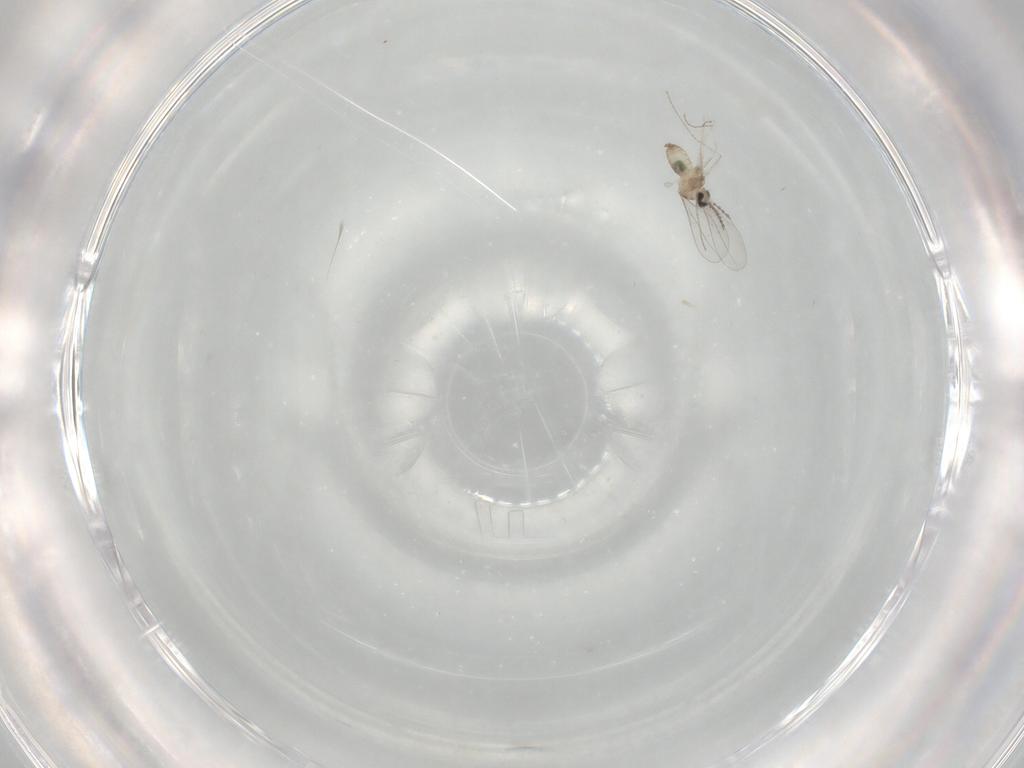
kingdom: Animalia
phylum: Arthropoda
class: Insecta
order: Diptera
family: Cecidomyiidae
